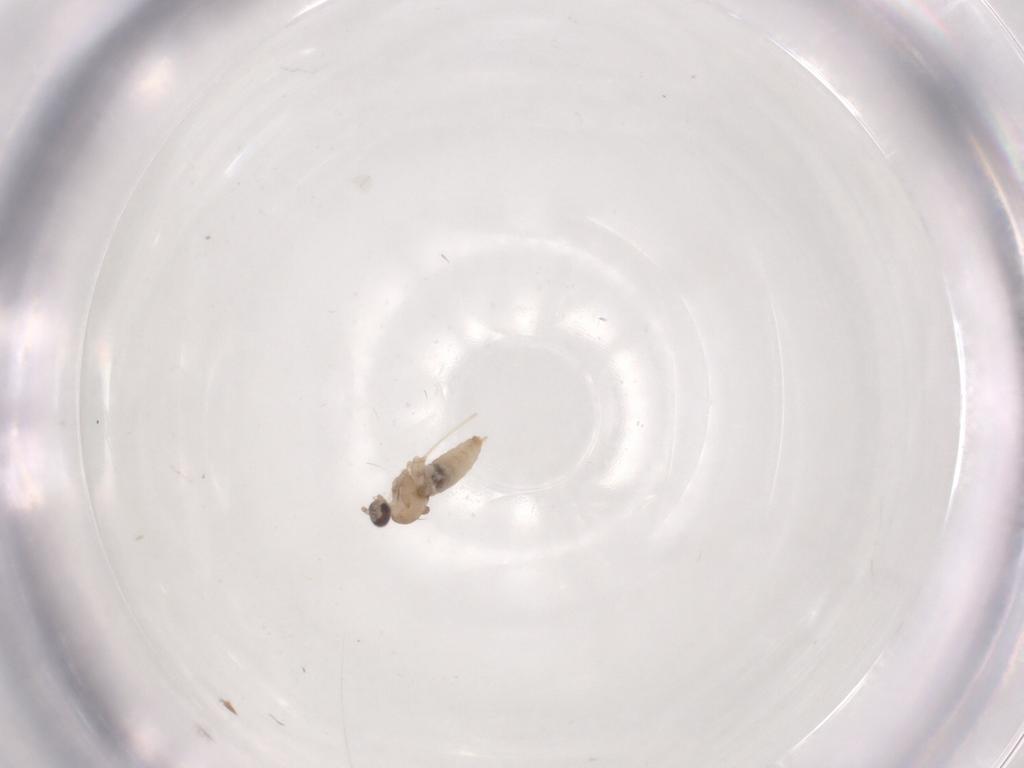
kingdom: Animalia
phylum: Arthropoda
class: Insecta
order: Diptera
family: Cecidomyiidae
